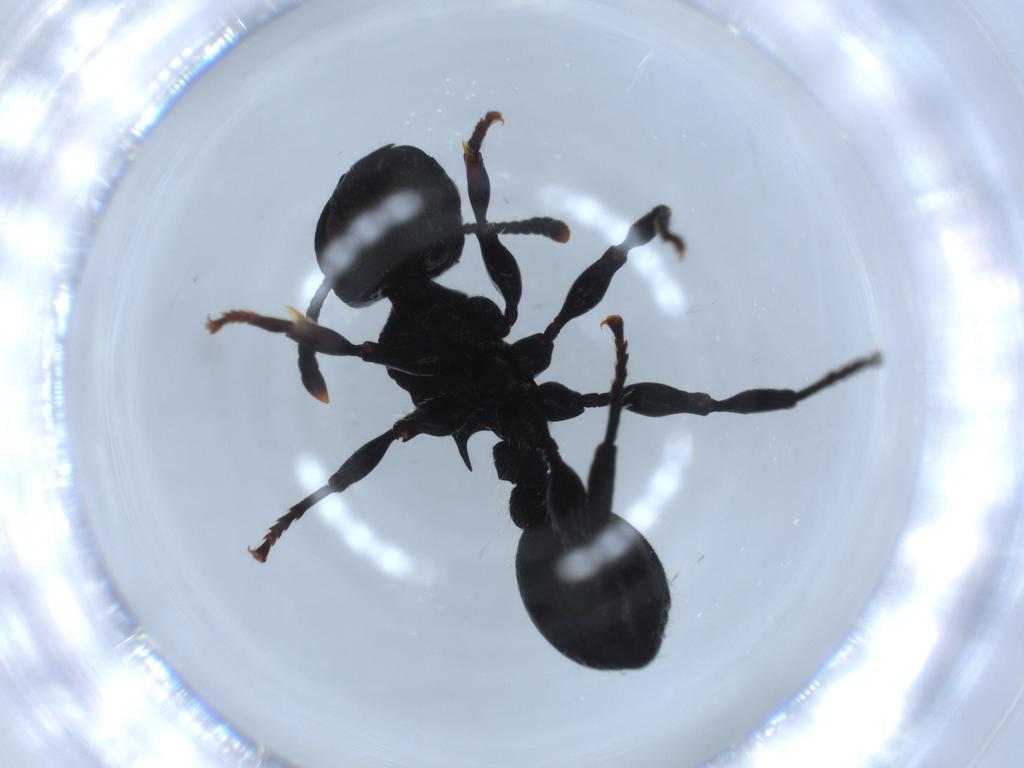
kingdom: Animalia
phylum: Arthropoda
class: Insecta
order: Hymenoptera
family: Formicidae
